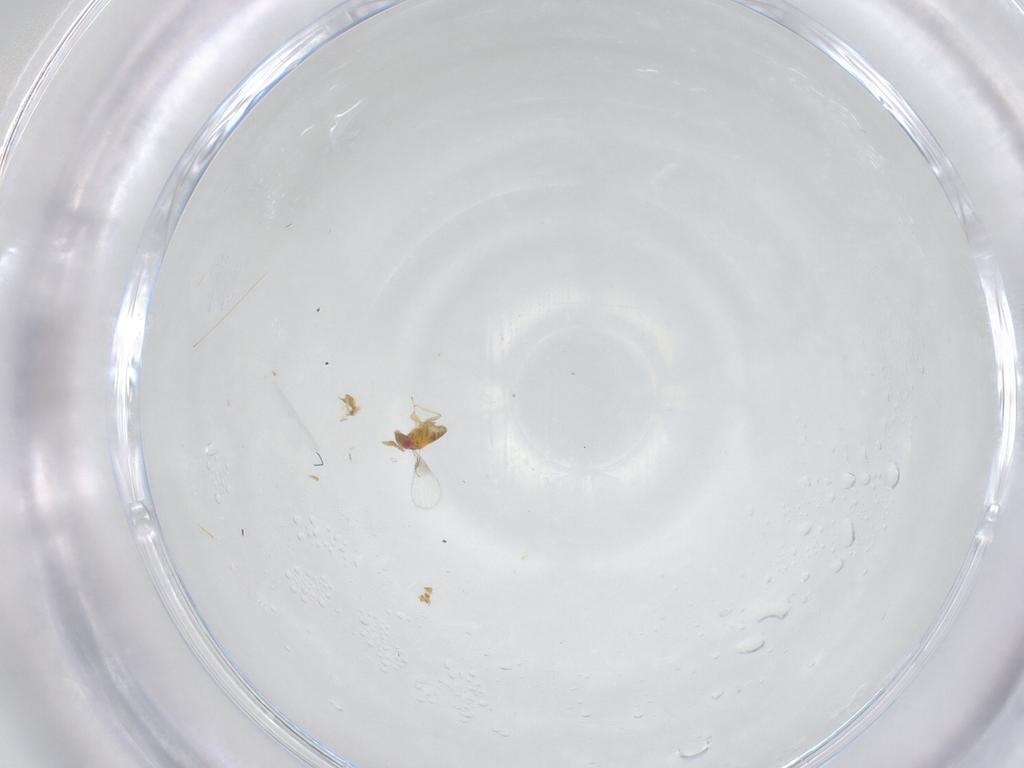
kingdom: Animalia
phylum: Arthropoda
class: Insecta
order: Hymenoptera
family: Trichogrammatidae
